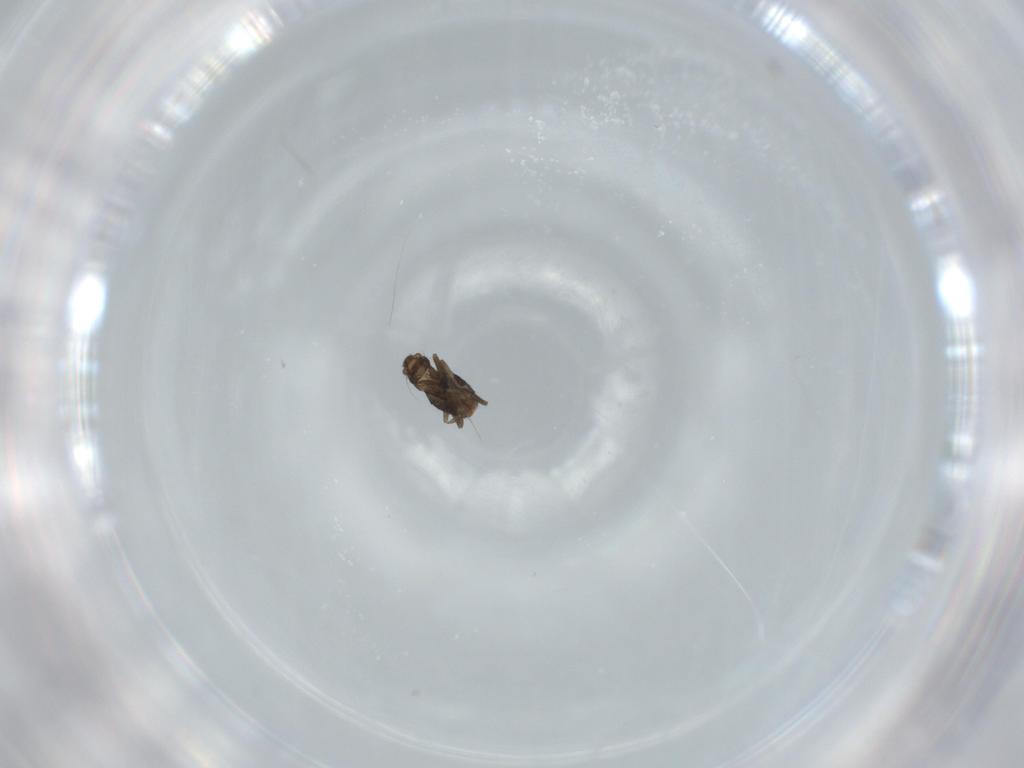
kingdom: Animalia
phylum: Arthropoda
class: Insecta
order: Diptera
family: Phoridae
